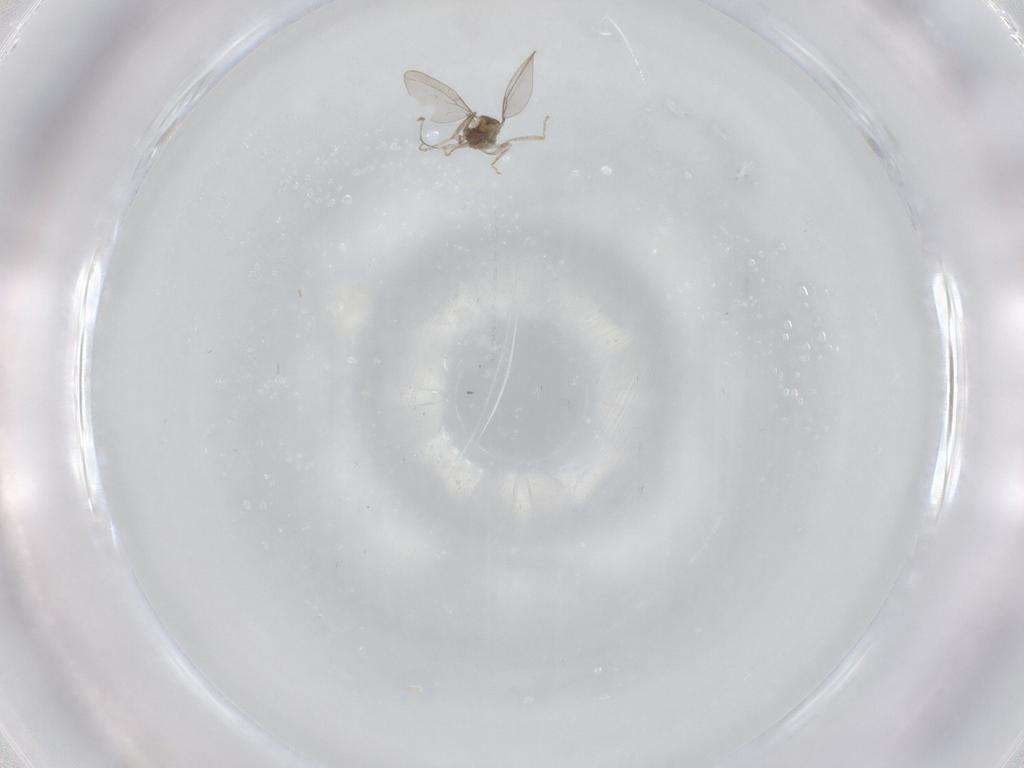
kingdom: Animalia
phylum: Arthropoda
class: Insecta
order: Diptera
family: Cecidomyiidae
